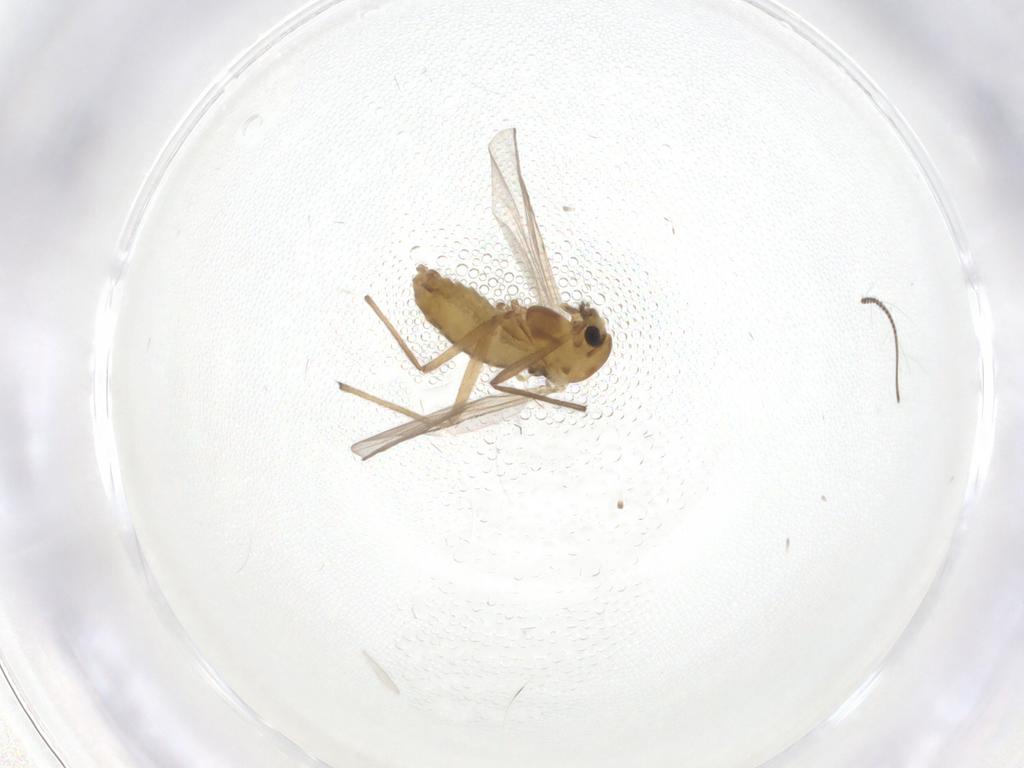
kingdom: Animalia
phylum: Arthropoda
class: Insecta
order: Diptera
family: Chironomidae
